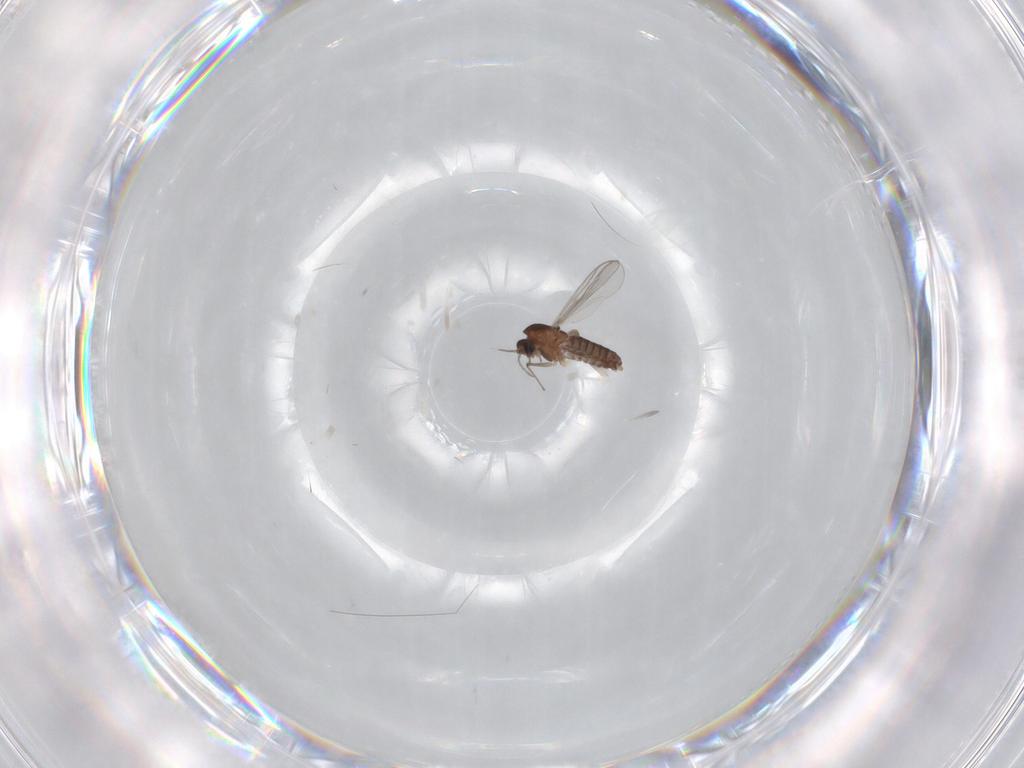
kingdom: Animalia
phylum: Arthropoda
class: Insecta
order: Diptera
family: Chironomidae
